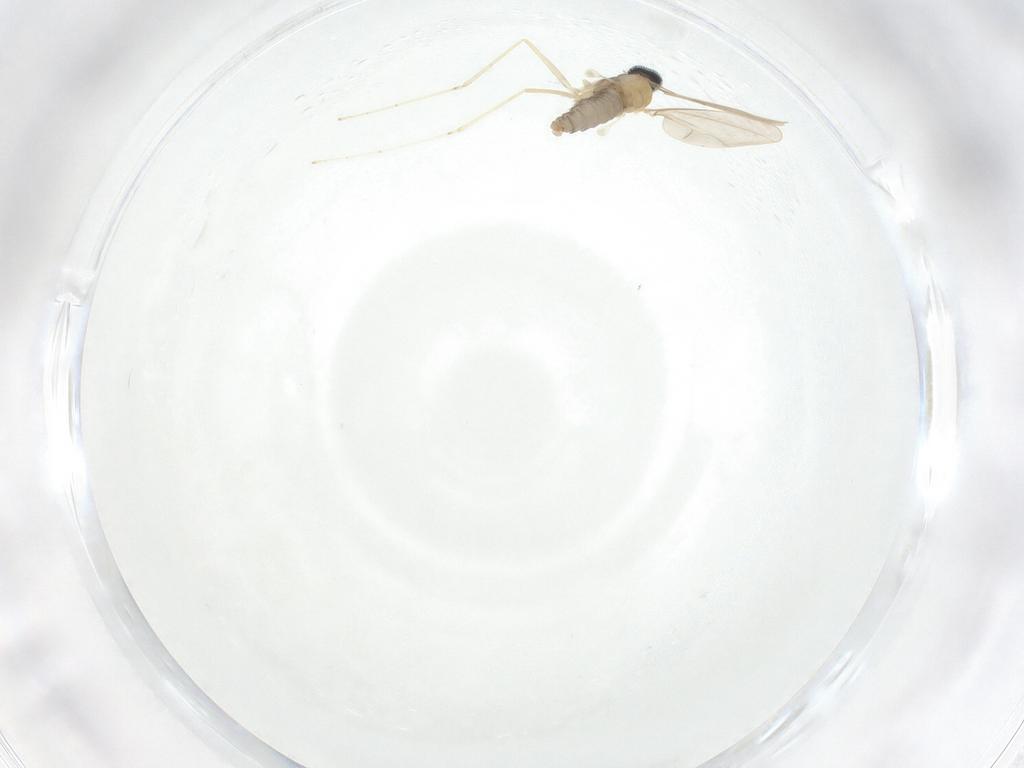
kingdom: Animalia
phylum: Arthropoda
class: Insecta
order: Diptera
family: Cecidomyiidae
